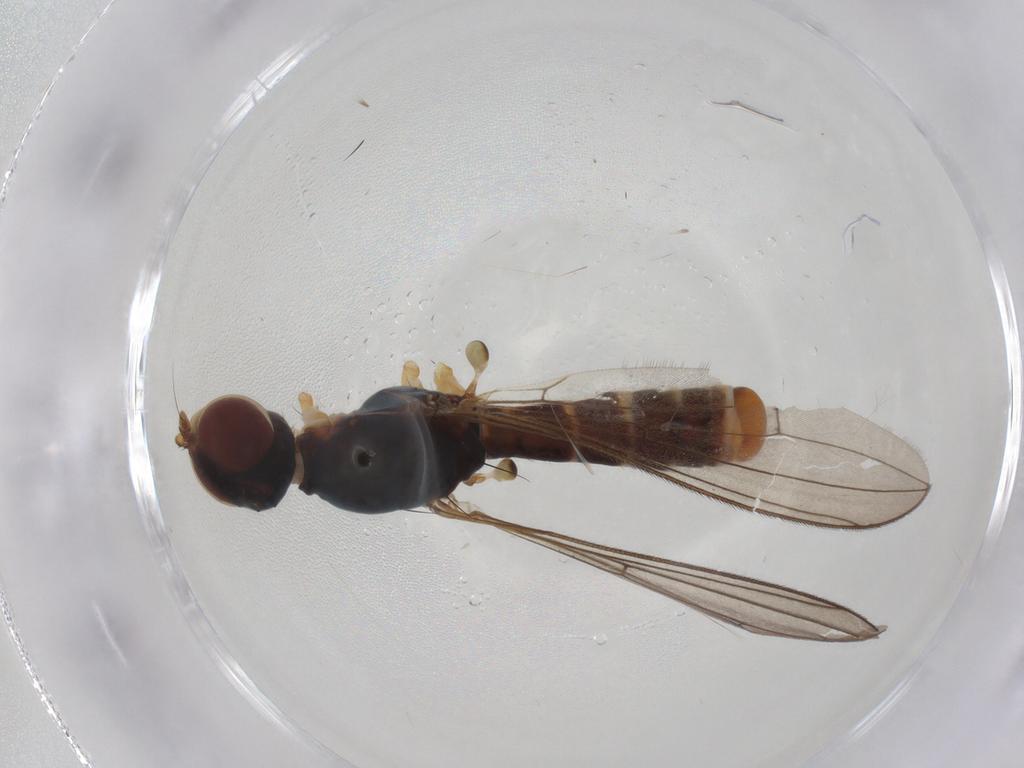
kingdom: Animalia
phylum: Arthropoda
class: Insecta
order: Diptera
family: Micropezidae
